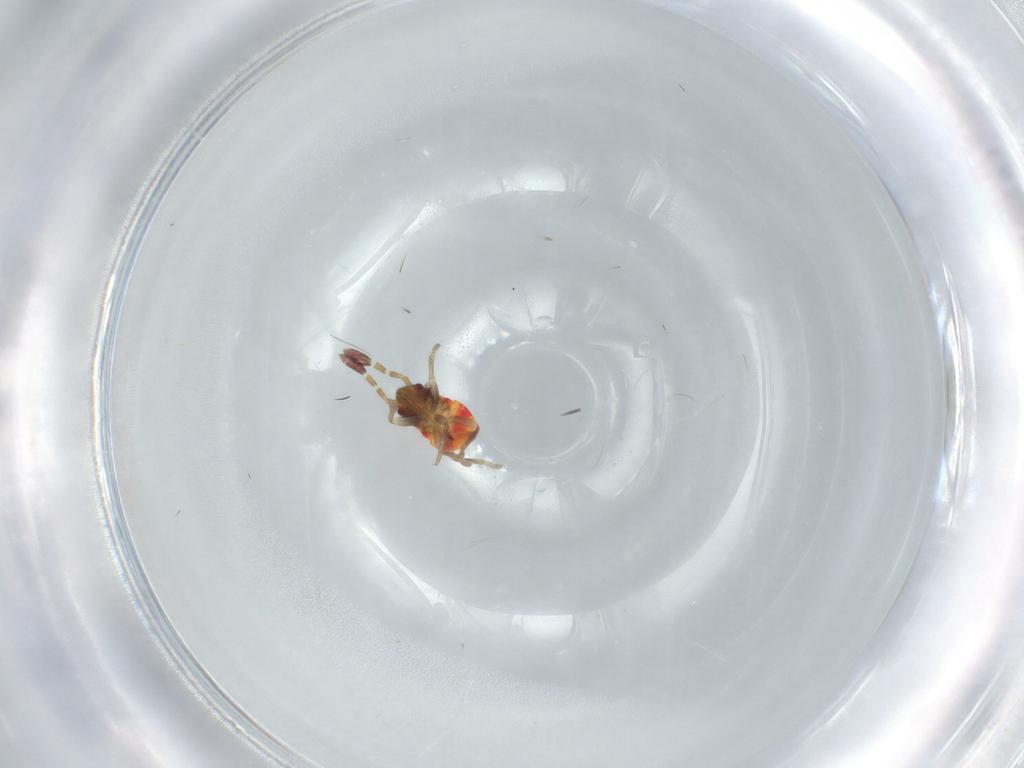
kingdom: Animalia
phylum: Arthropoda
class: Insecta
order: Hemiptera
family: Rhyparochromidae
